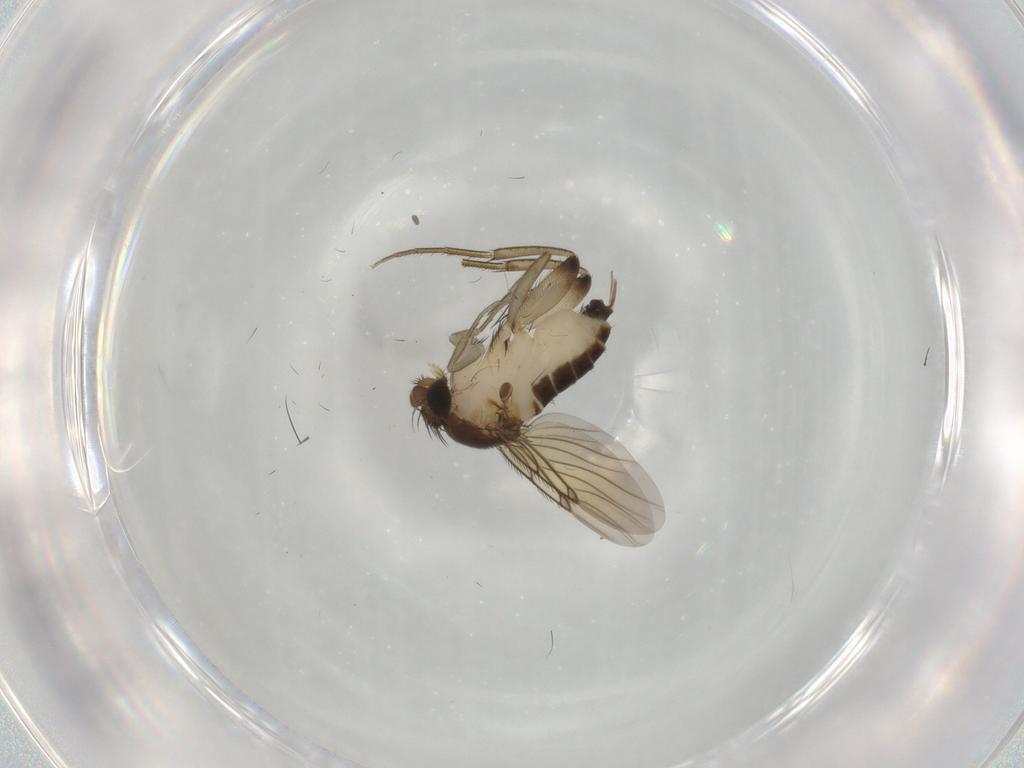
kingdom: Animalia
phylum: Arthropoda
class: Insecta
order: Diptera
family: Phoridae
